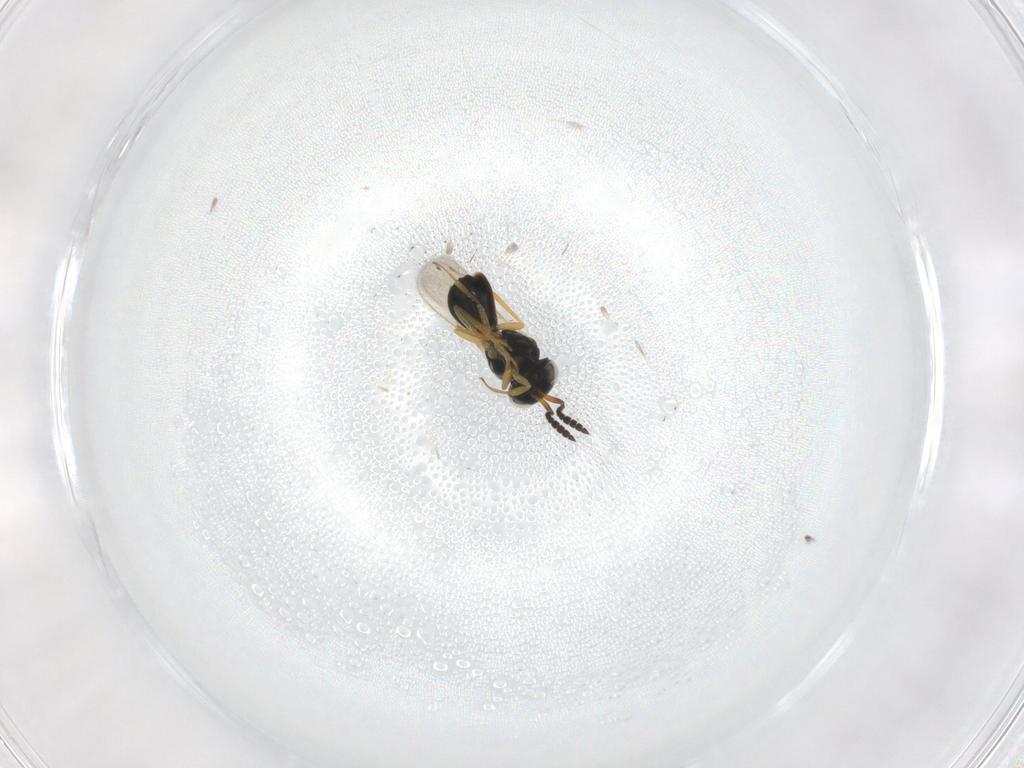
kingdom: Animalia
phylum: Arthropoda
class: Insecta
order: Hymenoptera
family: Scelionidae
